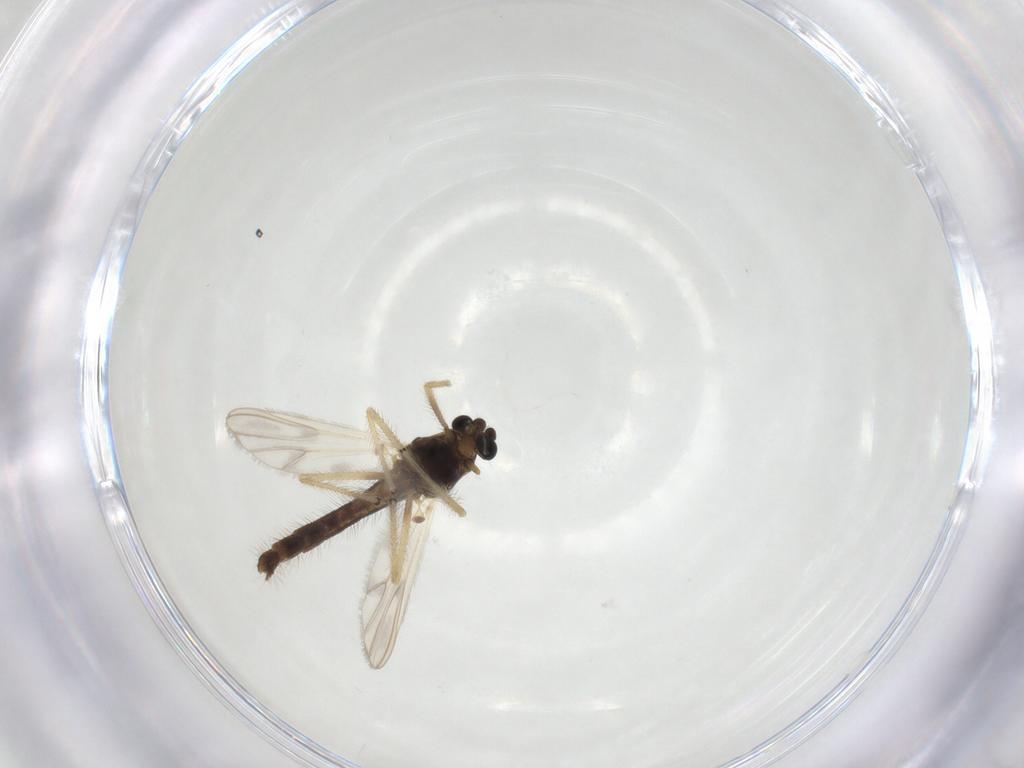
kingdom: Animalia
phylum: Arthropoda
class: Insecta
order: Diptera
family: Chironomidae
